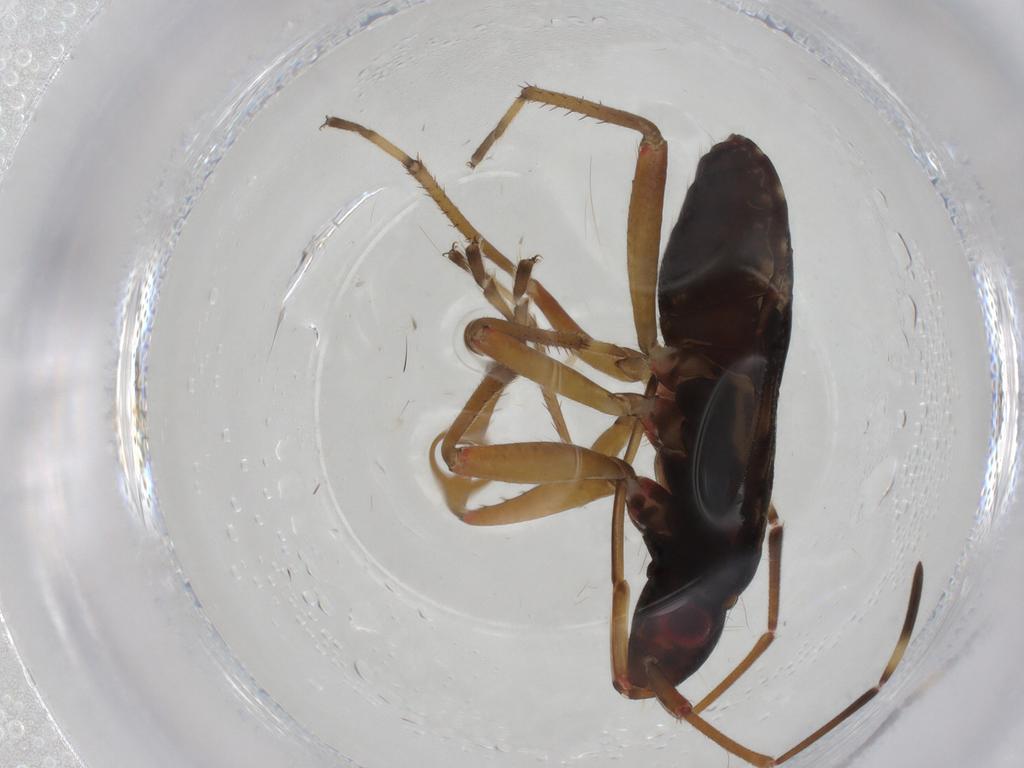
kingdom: Animalia
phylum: Arthropoda
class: Insecta
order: Hemiptera
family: Rhyparochromidae
